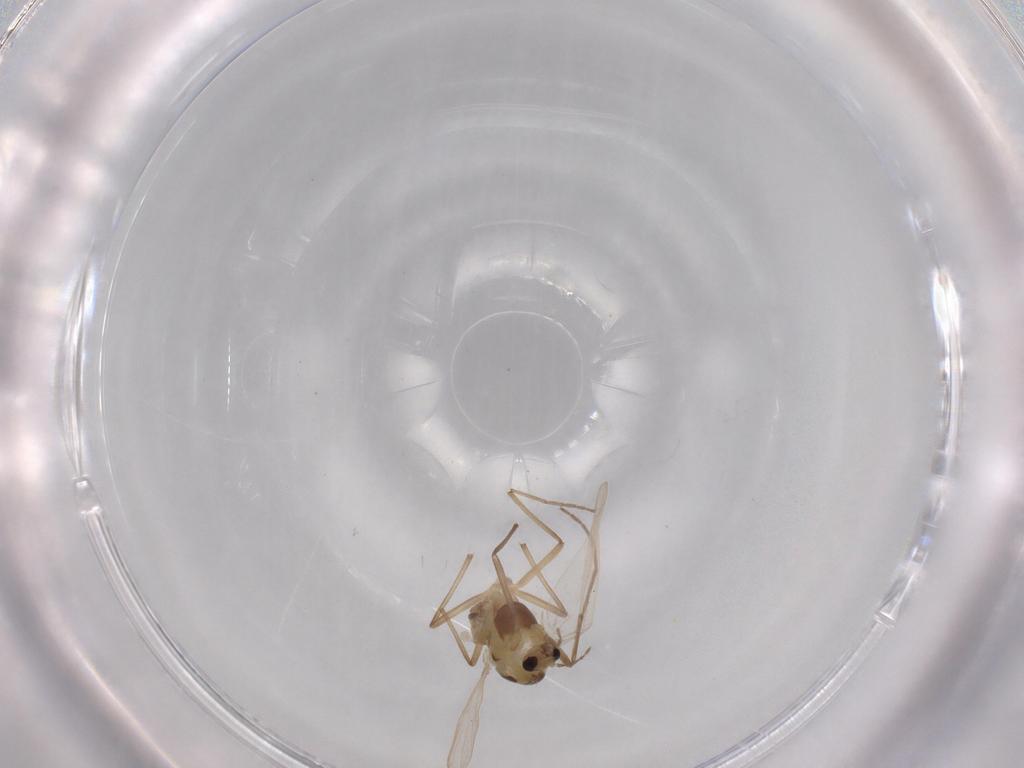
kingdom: Animalia
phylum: Arthropoda
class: Insecta
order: Diptera
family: Chironomidae
